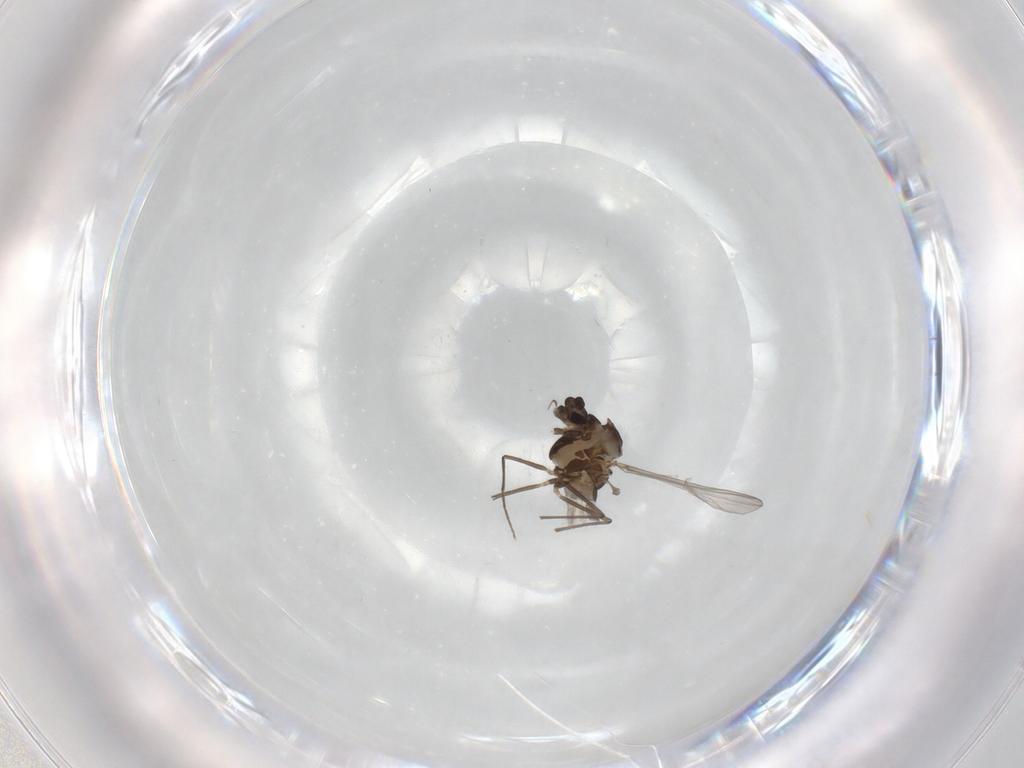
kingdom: Animalia
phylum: Arthropoda
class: Insecta
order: Diptera
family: Chironomidae
